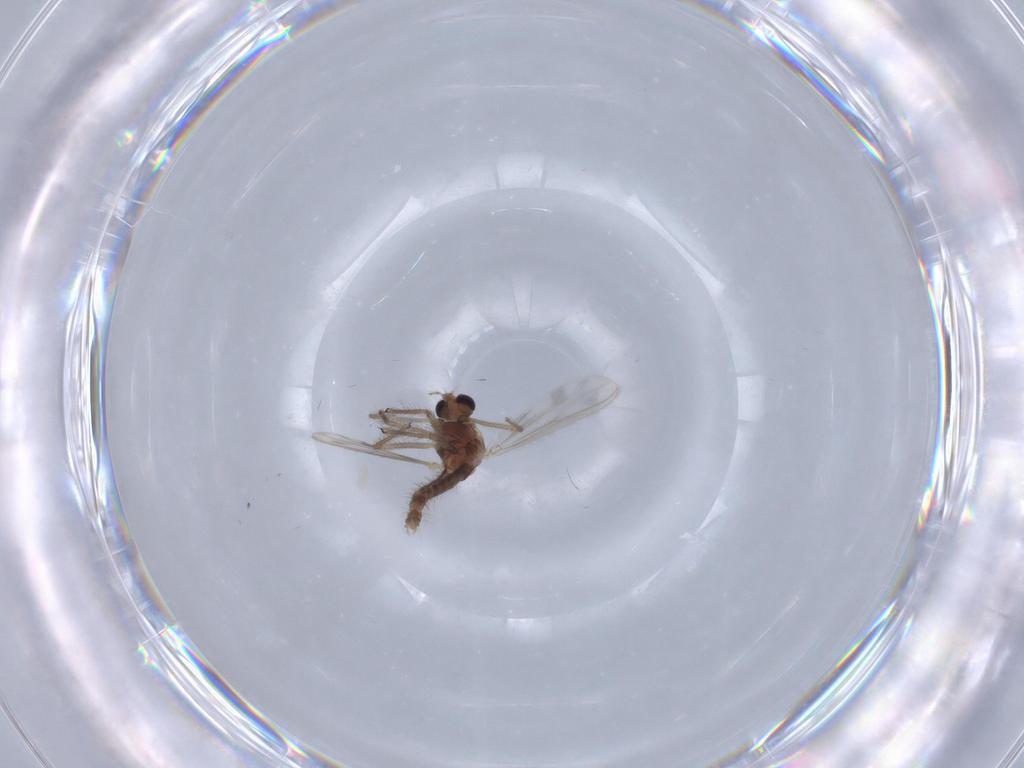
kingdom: Animalia
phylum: Arthropoda
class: Insecta
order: Diptera
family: Chironomidae
